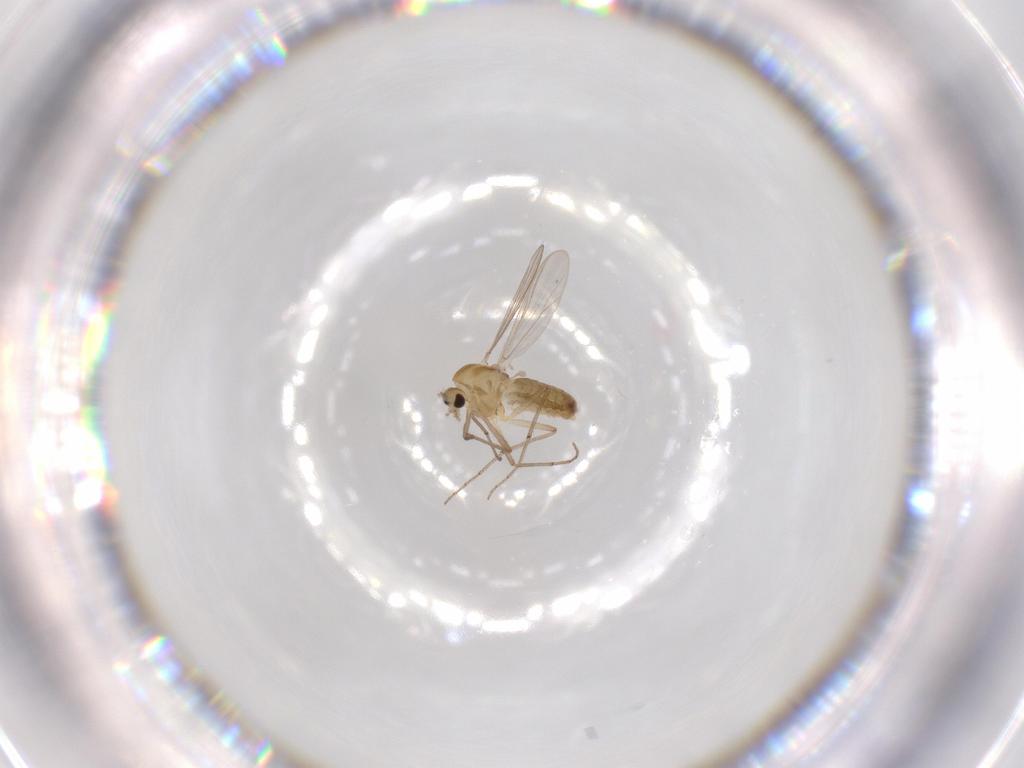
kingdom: Animalia
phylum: Arthropoda
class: Insecta
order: Diptera
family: Chironomidae
